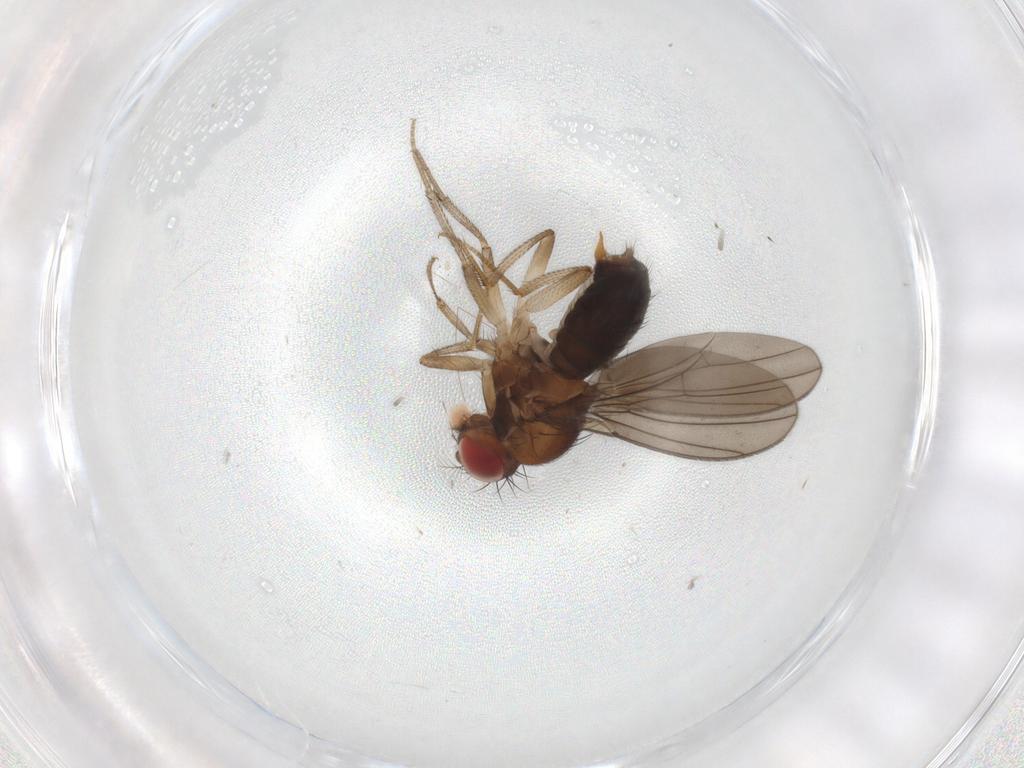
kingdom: Animalia
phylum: Arthropoda
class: Insecta
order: Diptera
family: Drosophilidae
